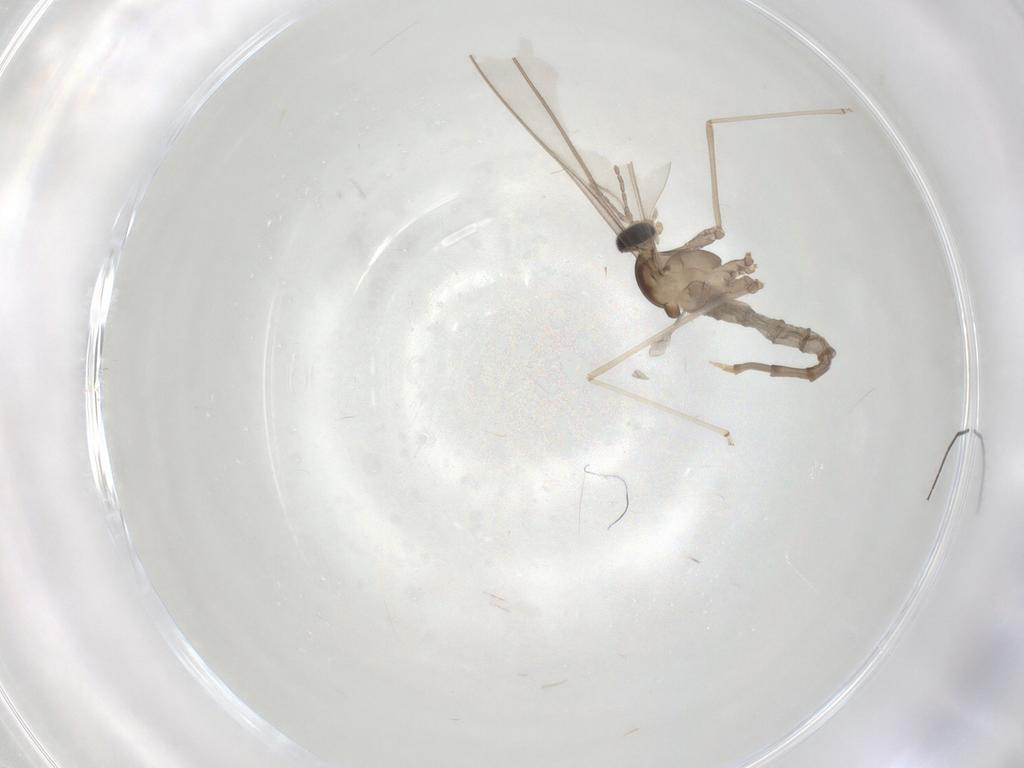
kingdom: Animalia
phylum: Arthropoda
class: Insecta
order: Diptera
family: Chironomidae
